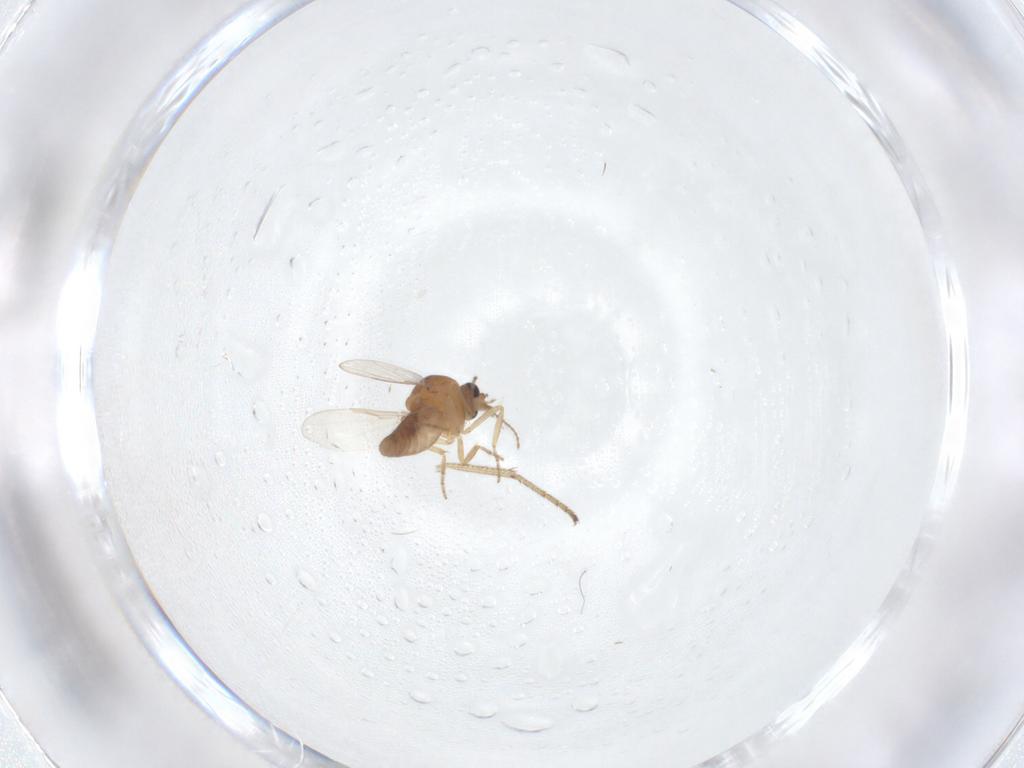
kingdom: Animalia
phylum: Arthropoda
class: Insecta
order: Diptera
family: Ceratopogonidae
